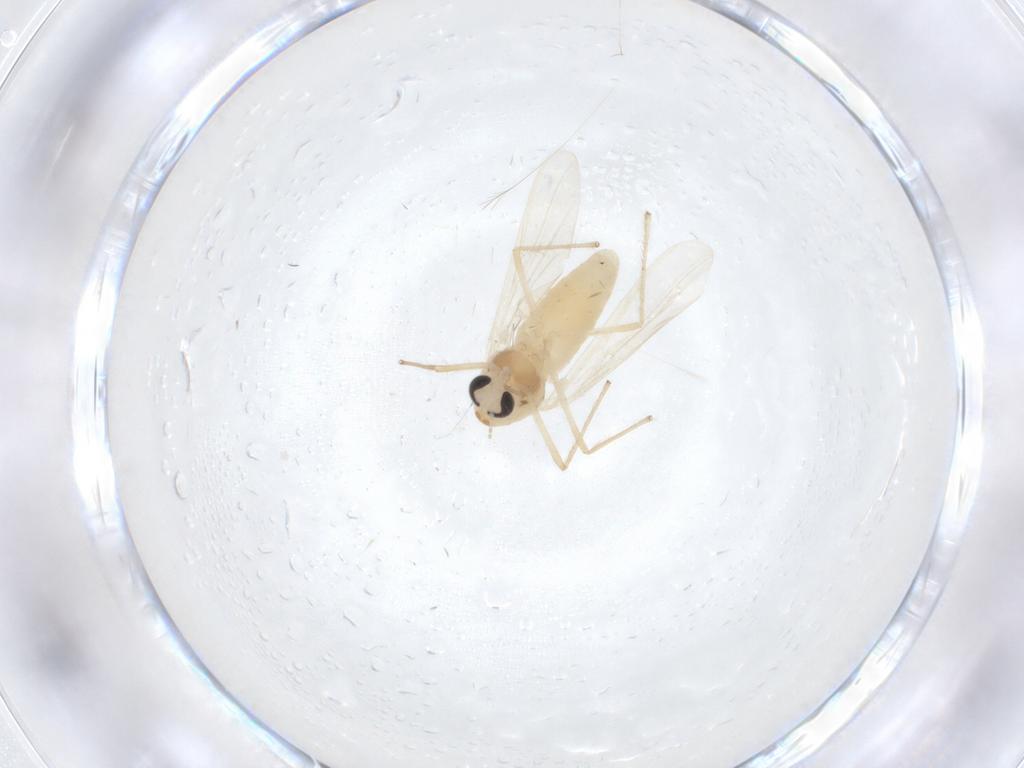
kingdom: Animalia
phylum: Arthropoda
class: Insecta
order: Diptera
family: Chironomidae
